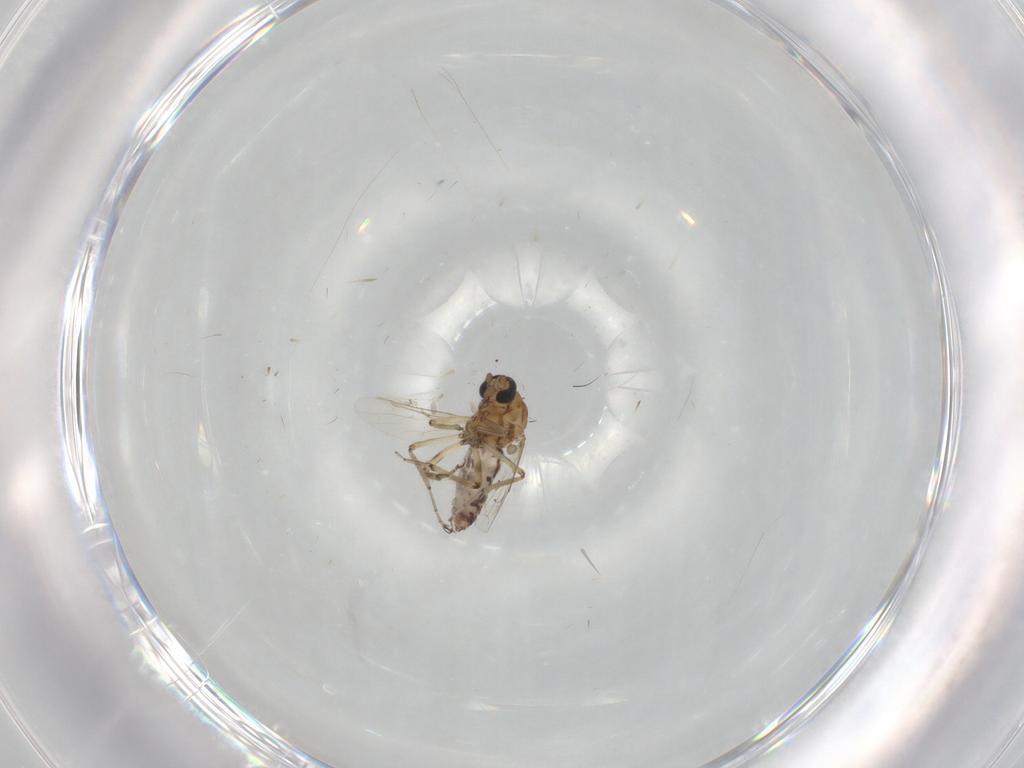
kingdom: Animalia
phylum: Arthropoda
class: Insecta
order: Diptera
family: Ceratopogonidae
